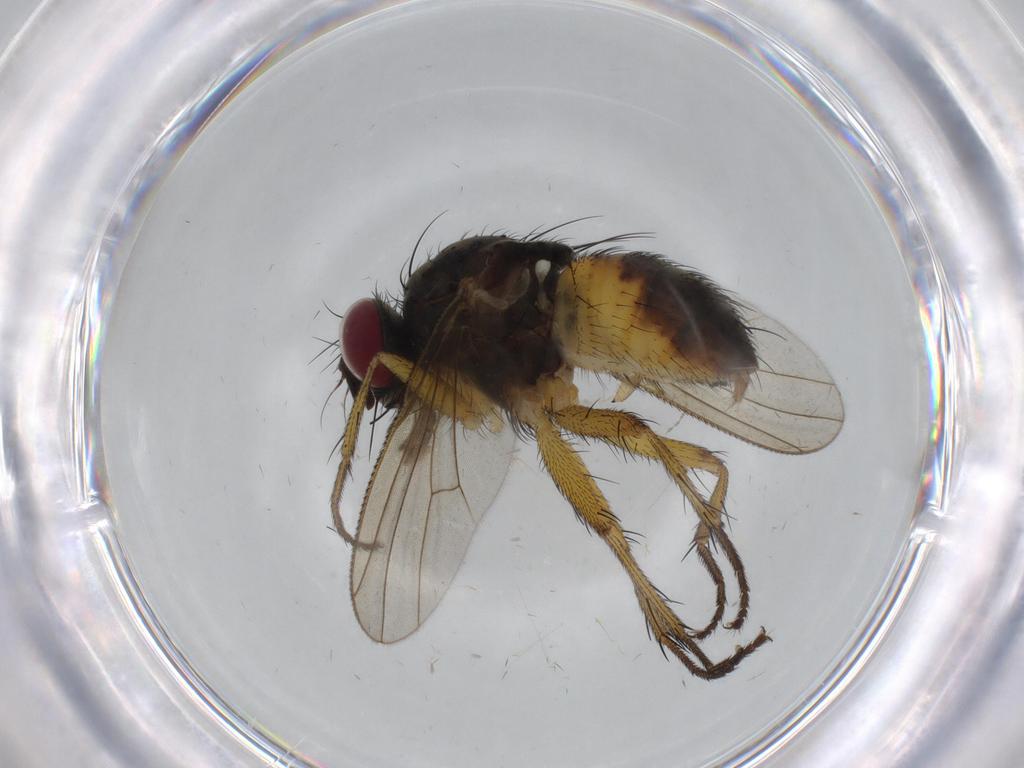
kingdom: Animalia
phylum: Arthropoda
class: Insecta
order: Diptera
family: Muscidae
